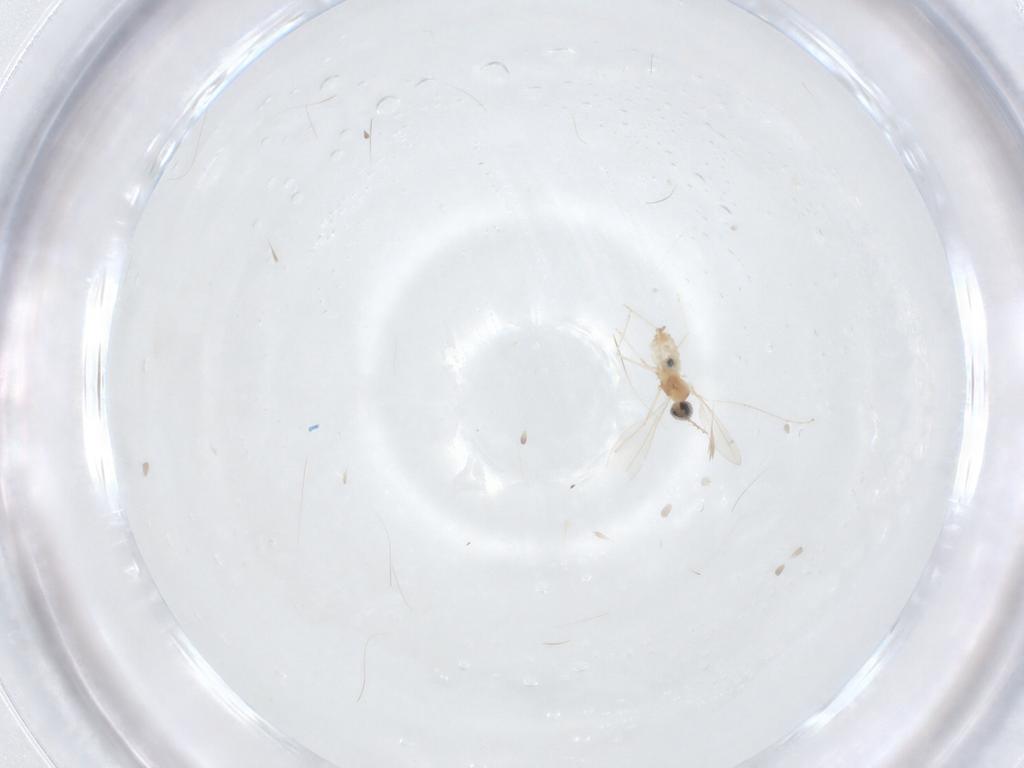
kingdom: Animalia
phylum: Arthropoda
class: Insecta
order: Diptera
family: Cecidomyiidae
